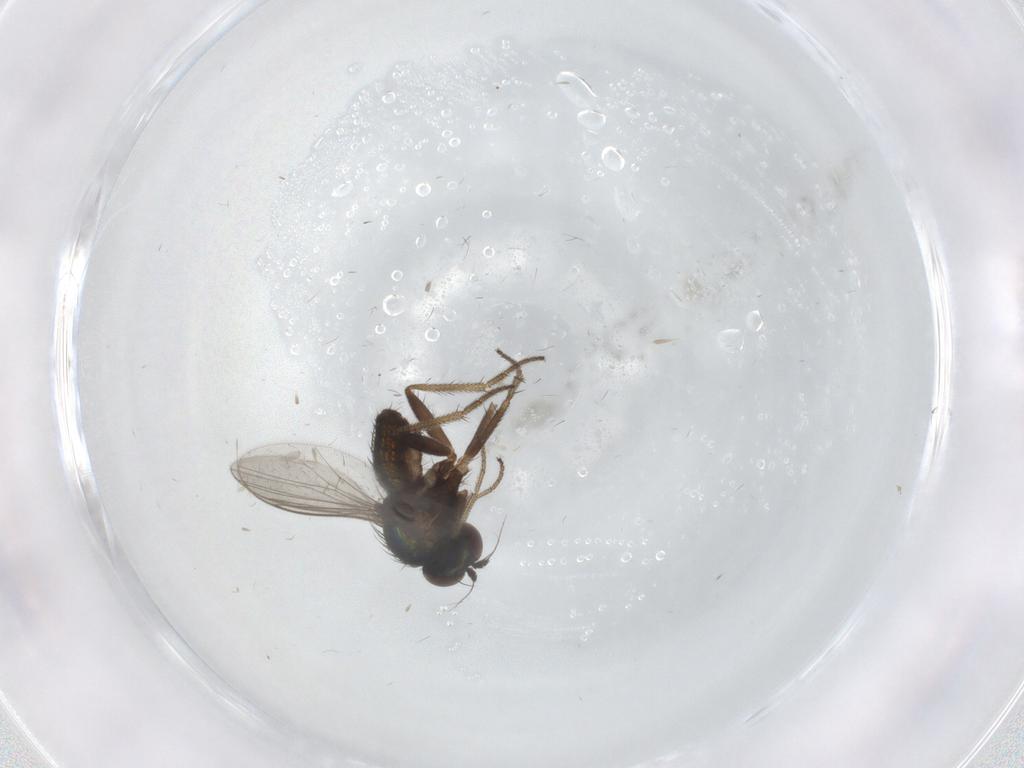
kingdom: Animalia
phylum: Arthropoda
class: Insecta
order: Diptera
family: Dolichopodidae
